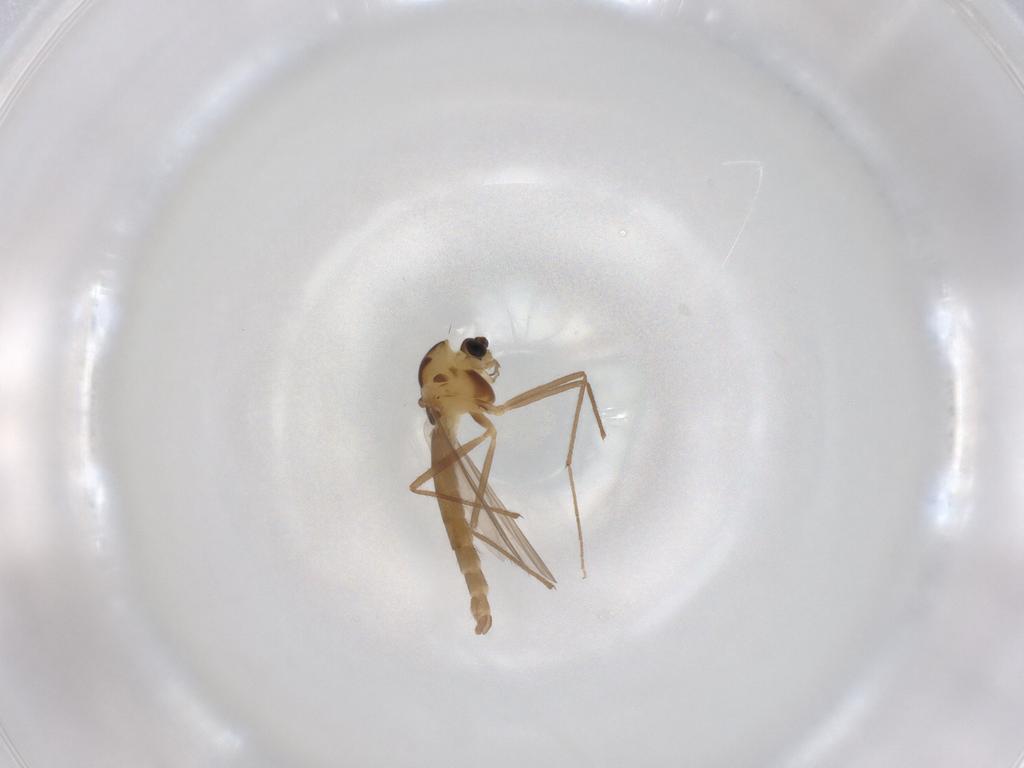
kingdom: Animalia
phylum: Arthropoda
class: Insecta
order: Diptera
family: Chironomidae
